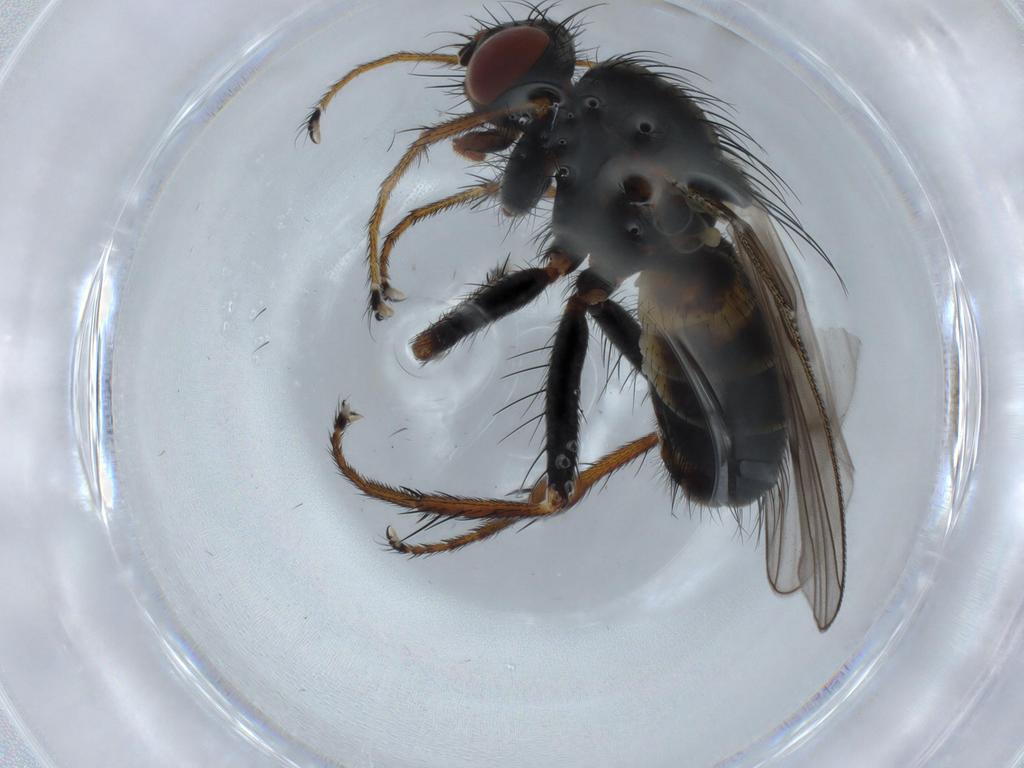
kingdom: Animalia
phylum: Arthropoda
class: Insecta
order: Diptera
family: Muscidae
